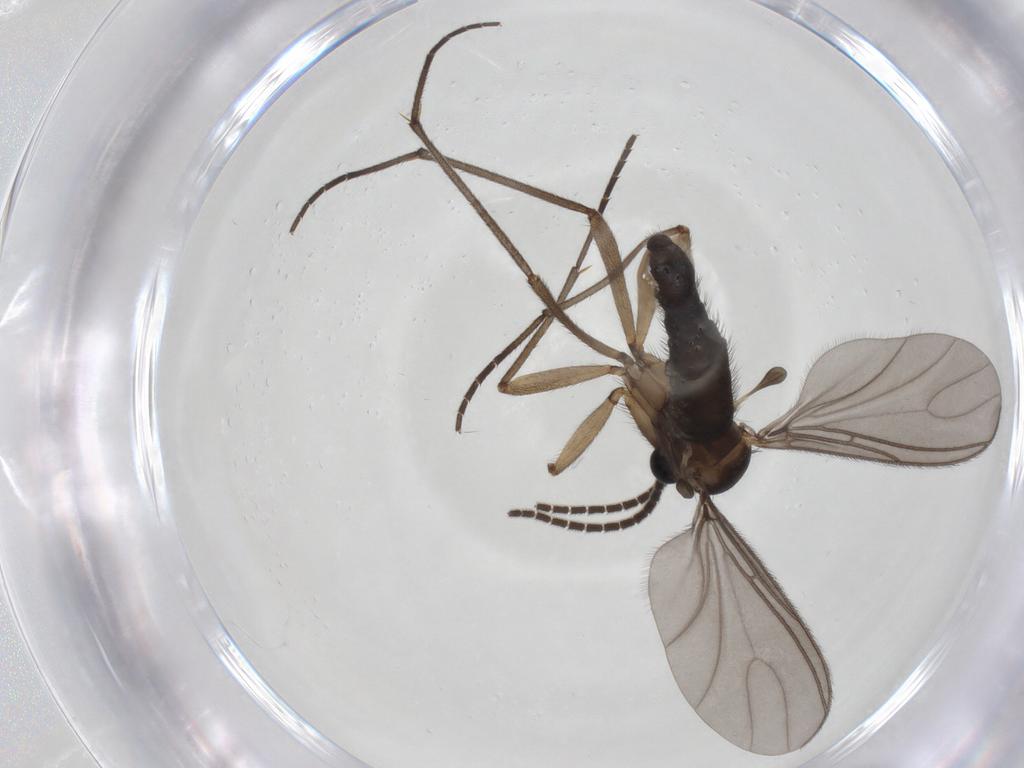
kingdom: Animalia
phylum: Arthropoda
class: Insecta
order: Diptera
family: Sciaridae
